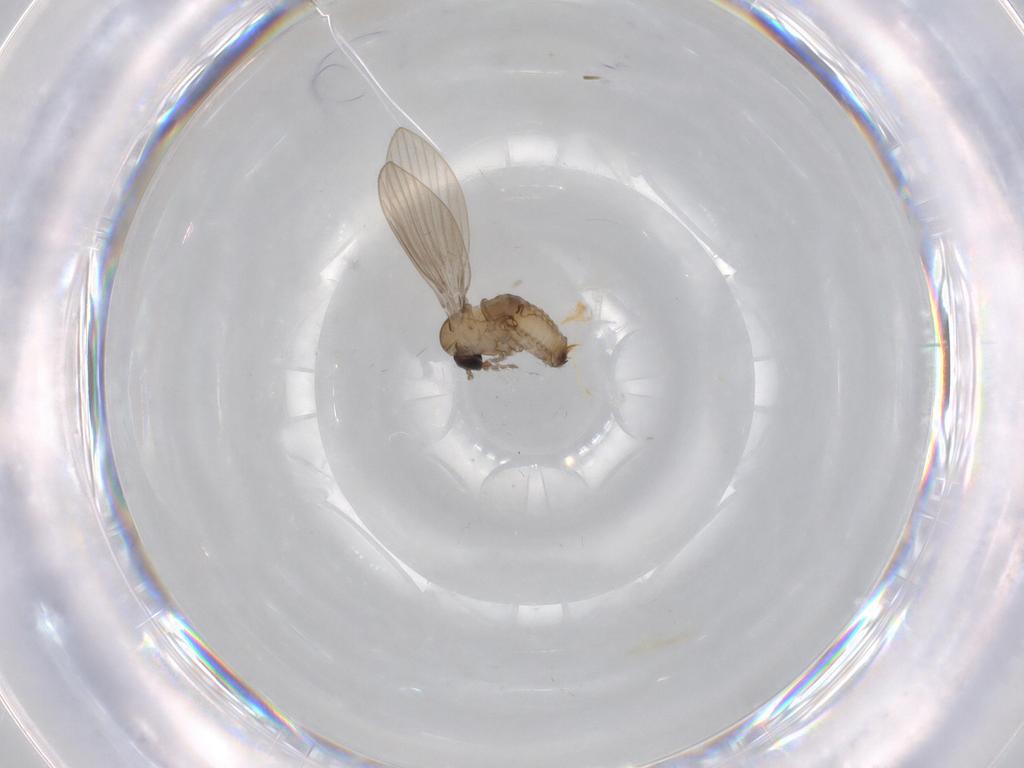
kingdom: Animalia
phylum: Arthropoda
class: Insecta
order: Diptera
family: Psychodidae
